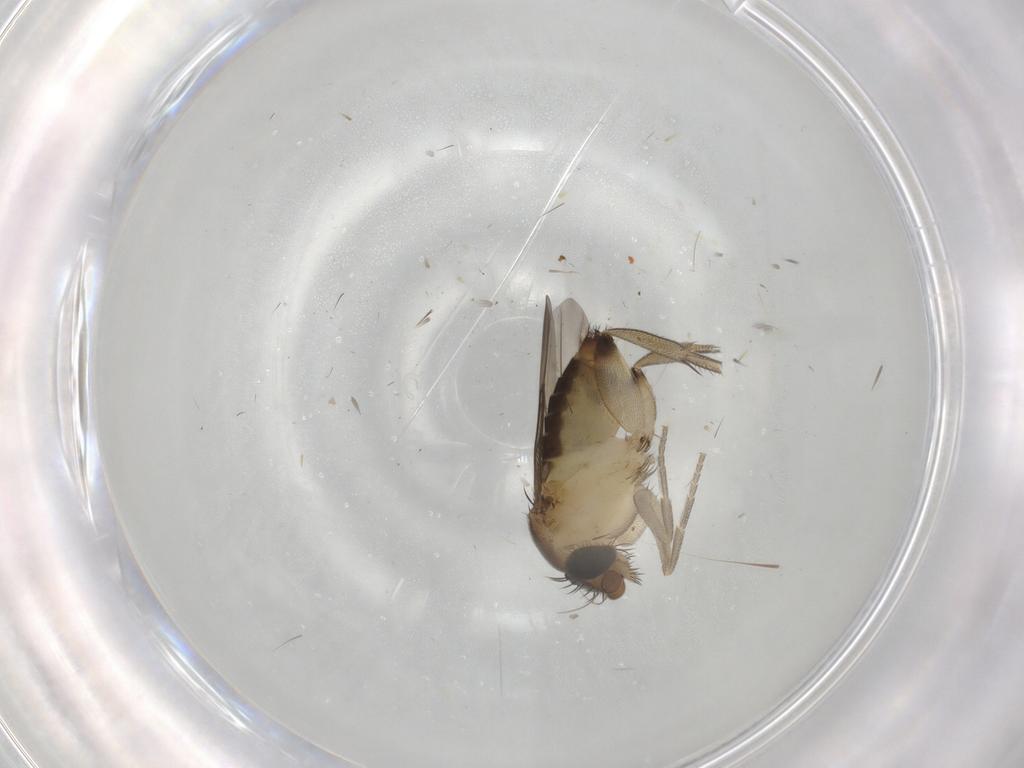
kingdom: Animalia
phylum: Arthropoda
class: Insecta
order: Diptera
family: Phoridae
